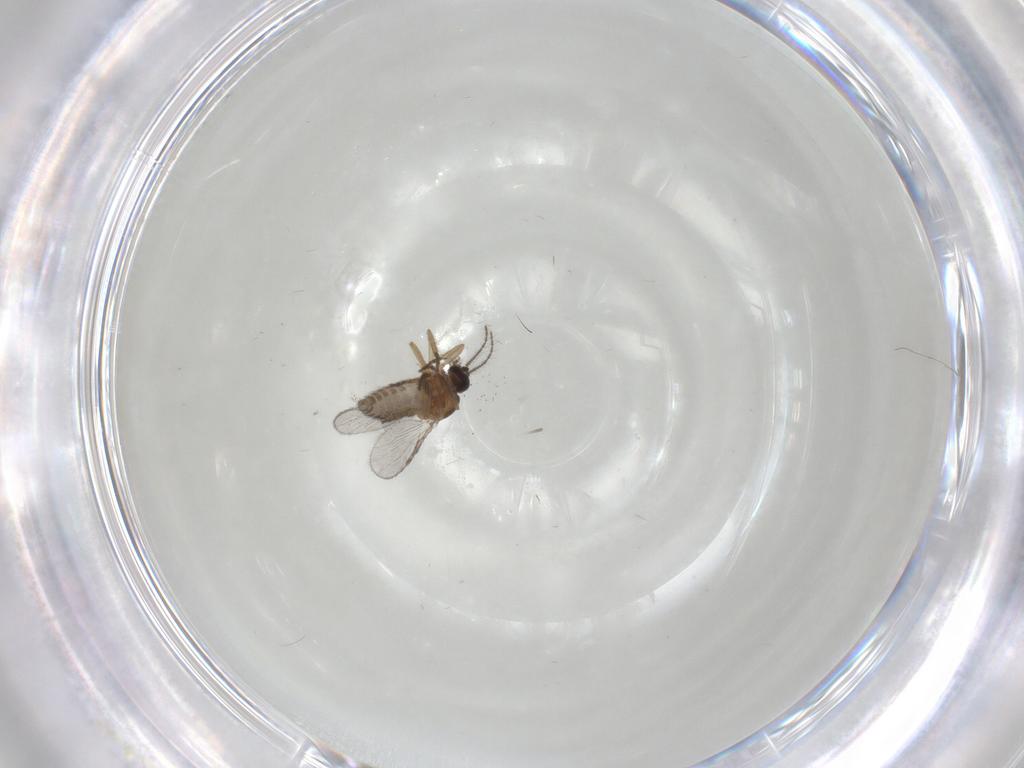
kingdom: Animalia
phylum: Arthropoda
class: Insecta
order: Diptera
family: Ceratopogonidae
